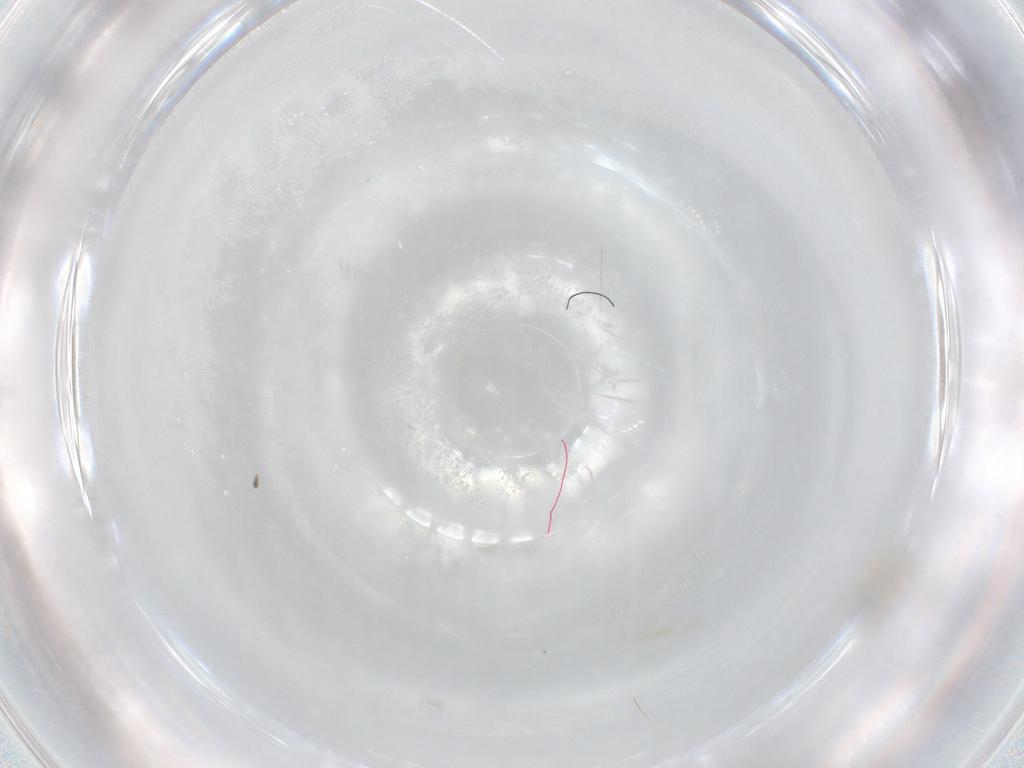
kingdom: Animalia
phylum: Arthropoda
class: Insecta
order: Diptera
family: Cecidomyiidae
